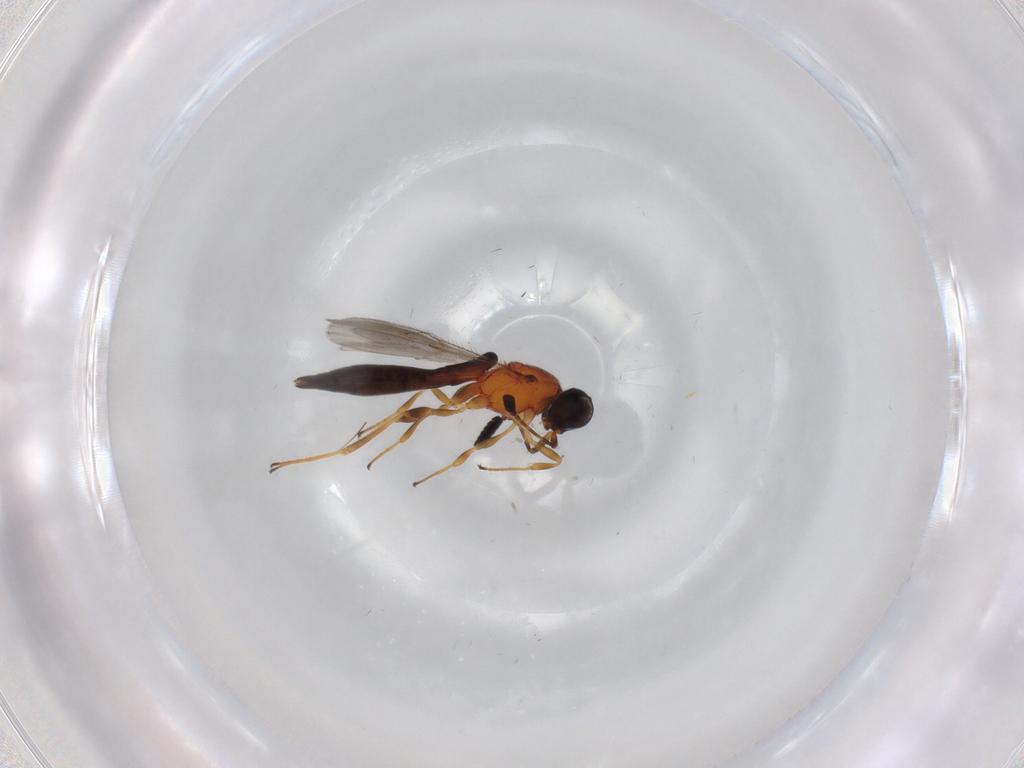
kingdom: Animalia
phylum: Arthropoda
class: Insecta
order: Hymenoptera
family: Scelionidae
